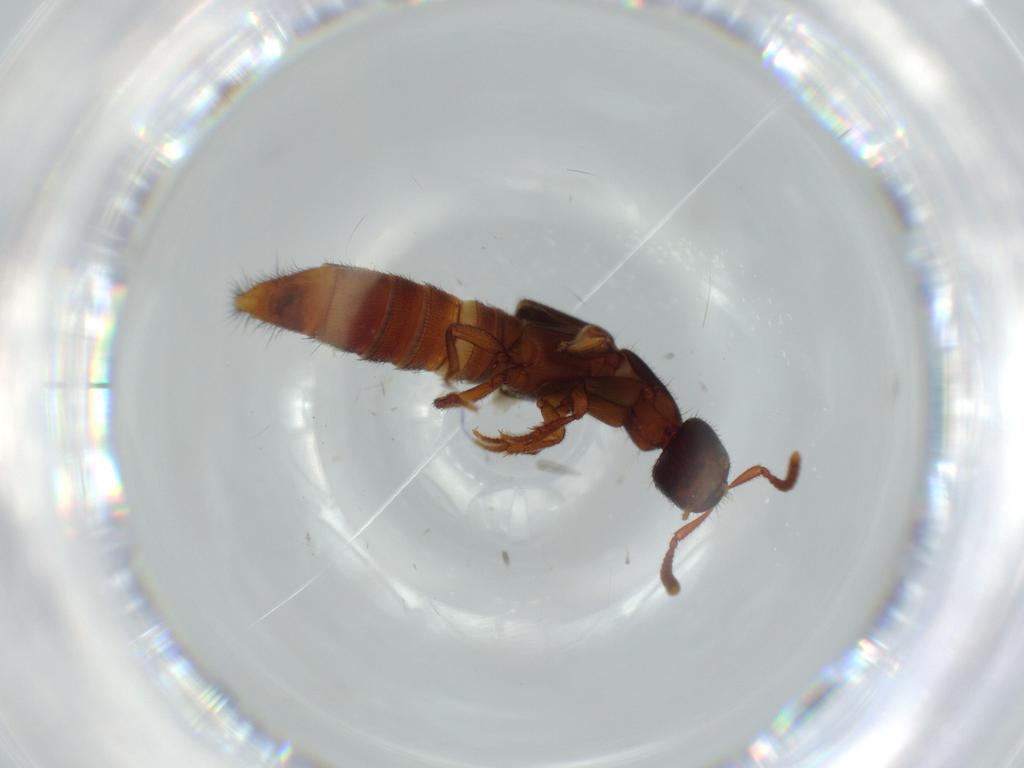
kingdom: Animalia
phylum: Arthropoda
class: Insecta
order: Coleoptera
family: Staphylinidae
